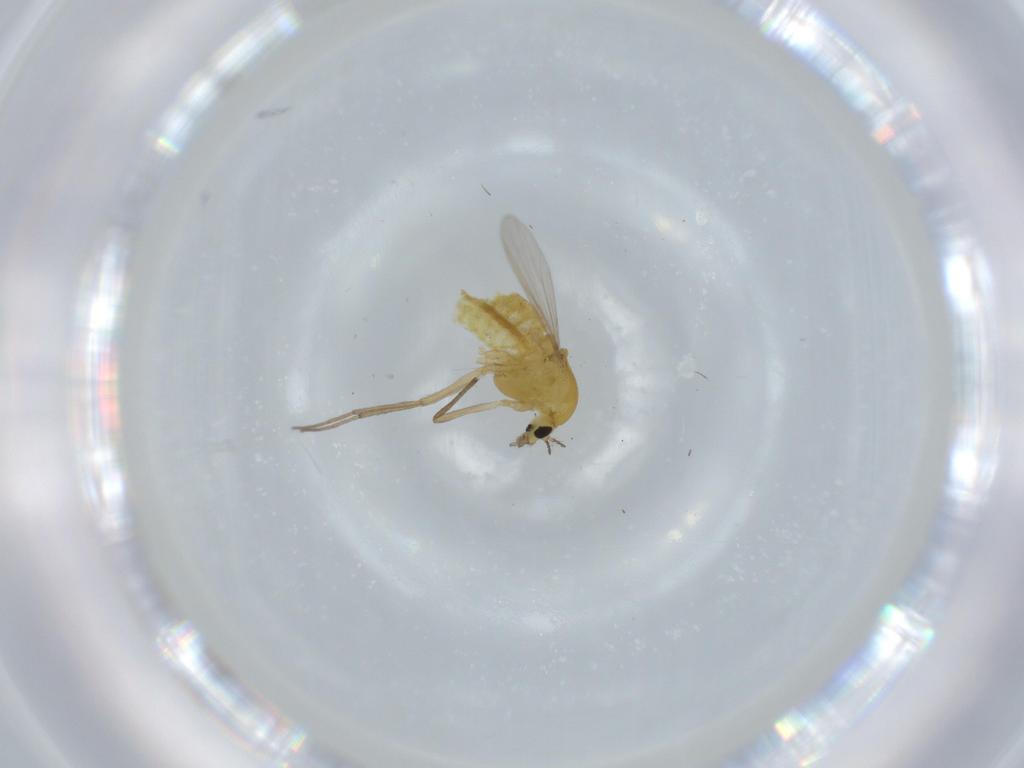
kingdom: Animalia
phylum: Arthropoda
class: Insecta
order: Diptera
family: Chironomidae
